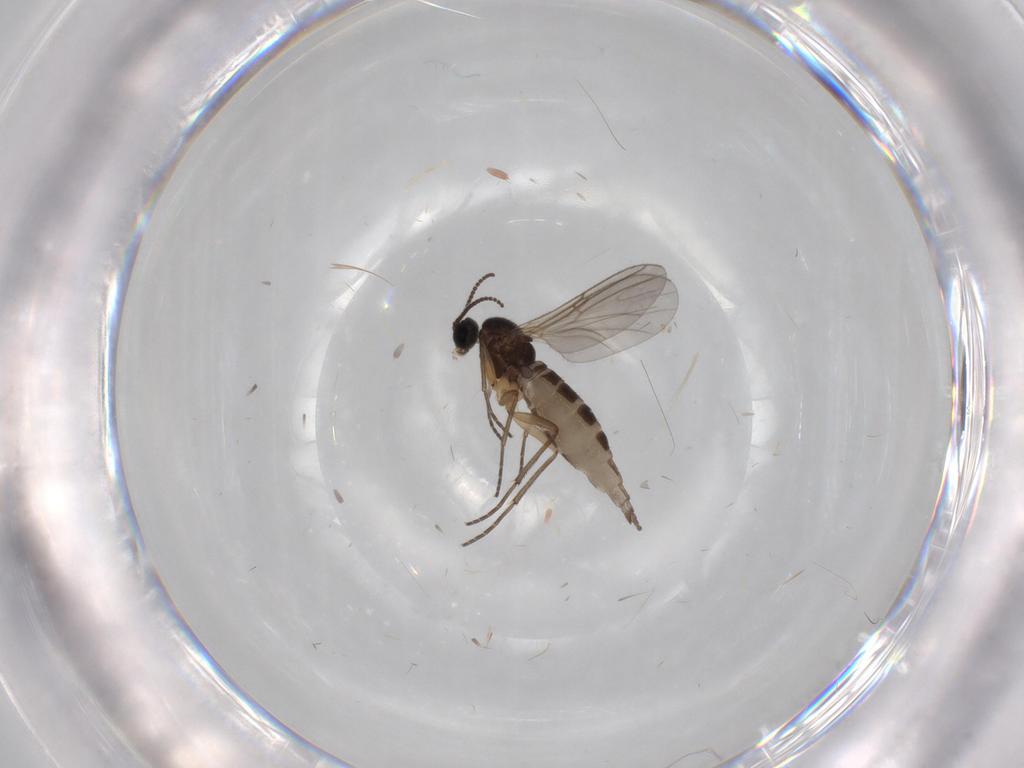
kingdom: Animalia
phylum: Arthropoda
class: Insecta
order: Diptera
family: Sciaridae
